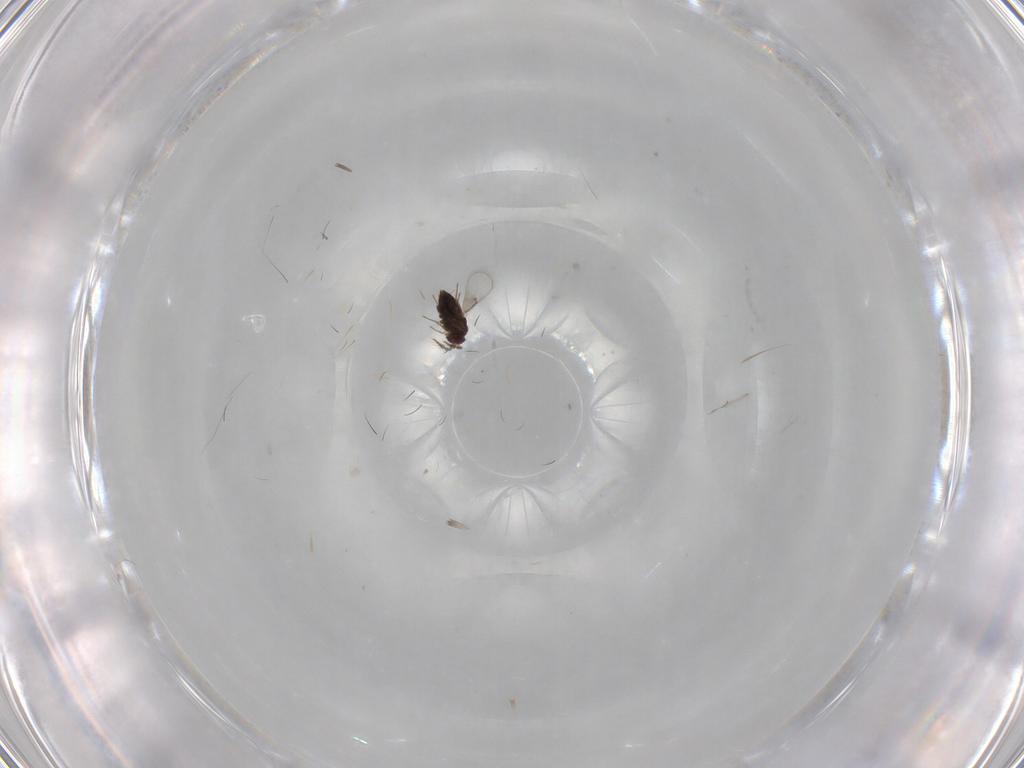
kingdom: Animalia
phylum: Arthropoda
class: Insecta
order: Hymenoptera
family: Trichogrammatidae
